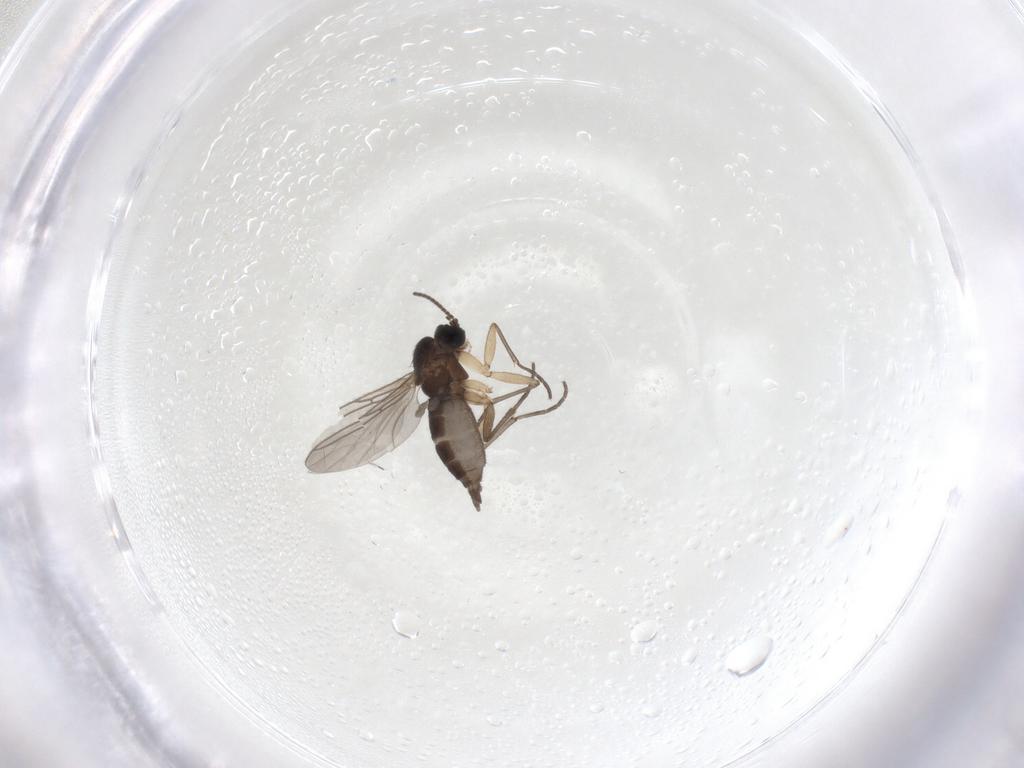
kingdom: Animalia
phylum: Arthropoda
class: Insecta
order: Diptera
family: Sciaridae
